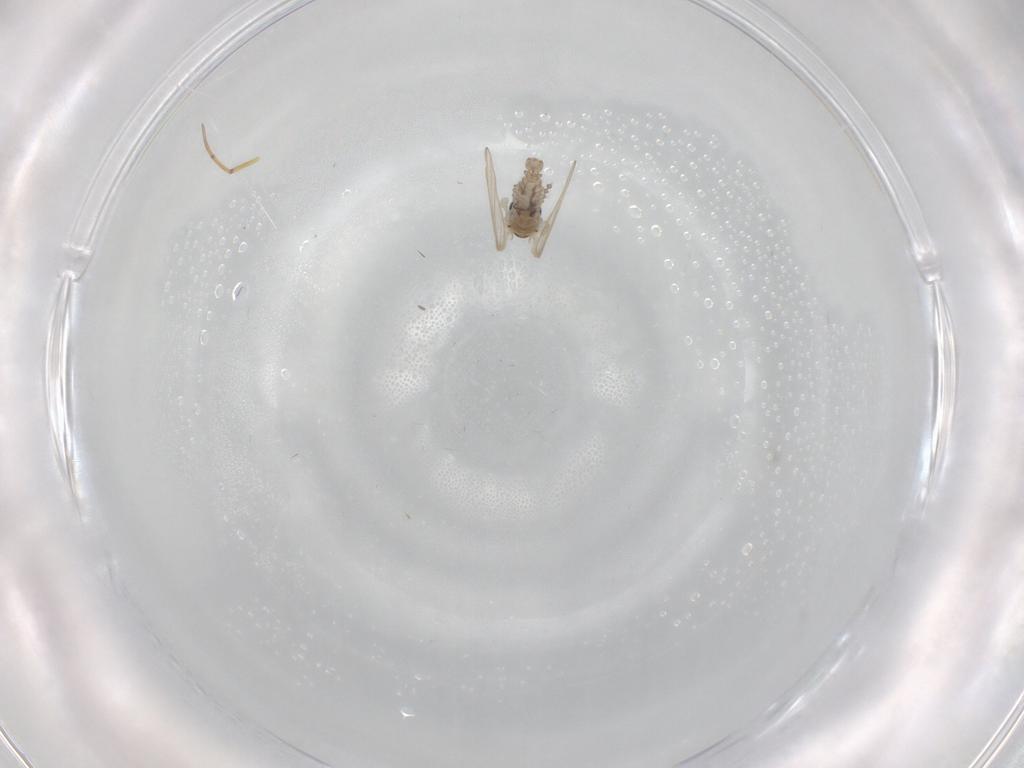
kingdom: Animalia
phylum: Arthropoda
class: Insecta
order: Diptera
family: Psychodidae
